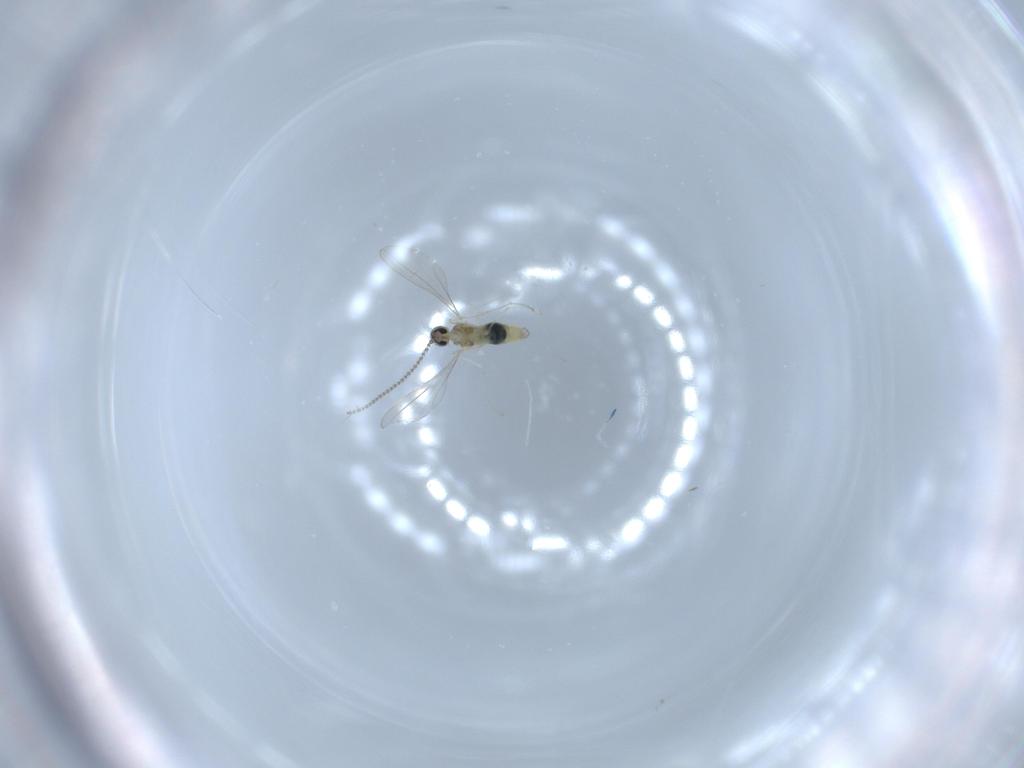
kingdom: Animalia
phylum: Arthropoda
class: Insecta
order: Diptera
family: Cecidomyiidae
